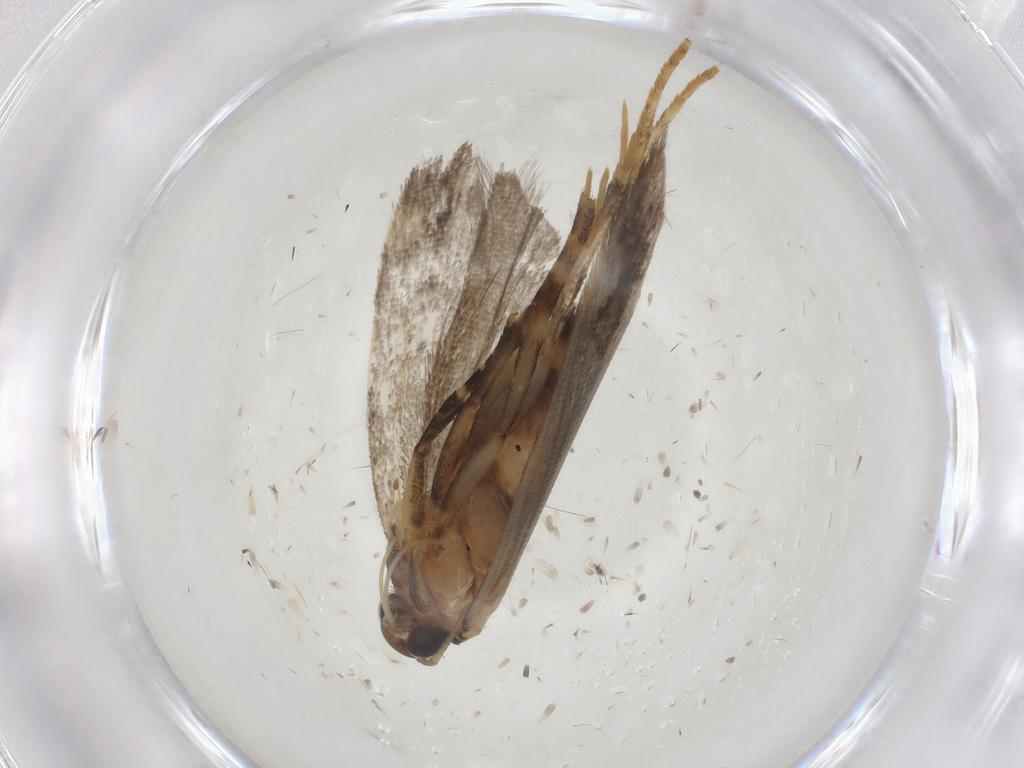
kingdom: Animalia
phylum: Arthropoda
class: Insecta
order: Lepidoptera
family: Gelechiidae
